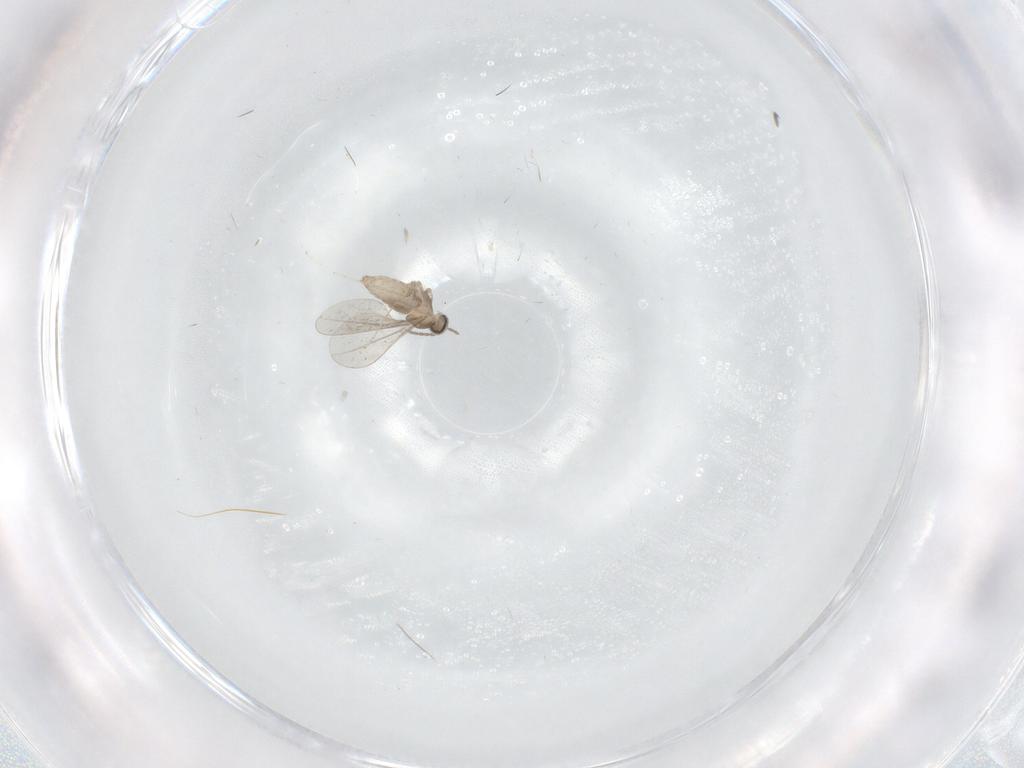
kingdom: Animalia
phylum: Arthropoda
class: Insecta
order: Diptera
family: Cecidomyiidae
